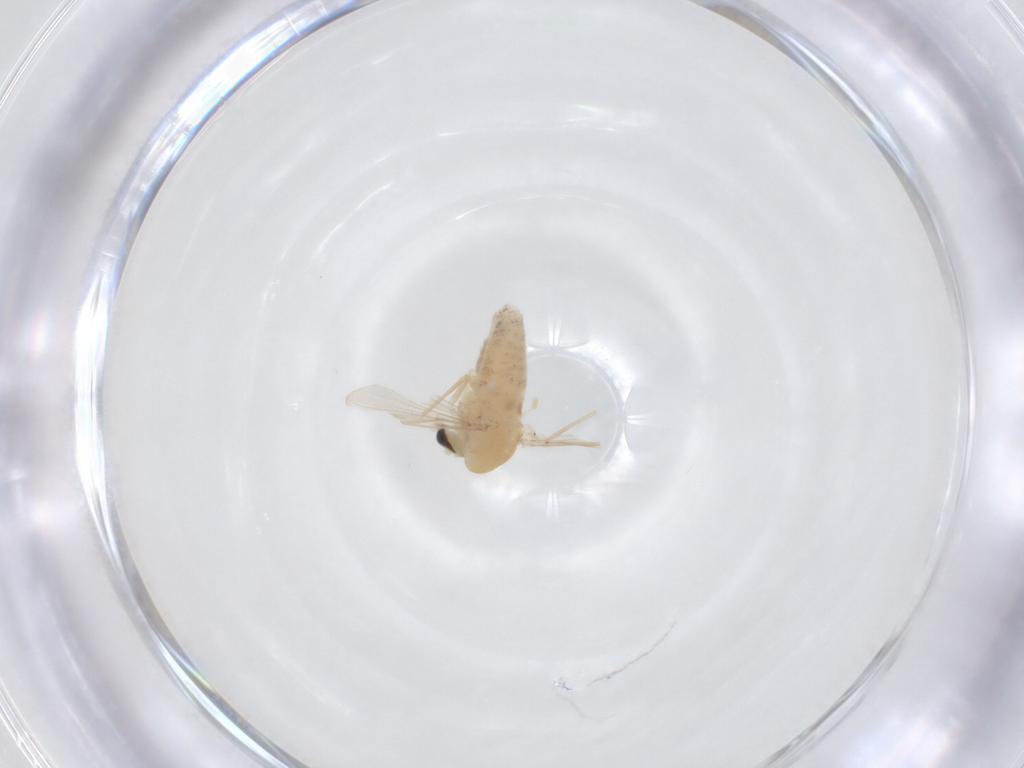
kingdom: Animalia
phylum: Arthropoda
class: Insecta
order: Diptera
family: Chironomidae
